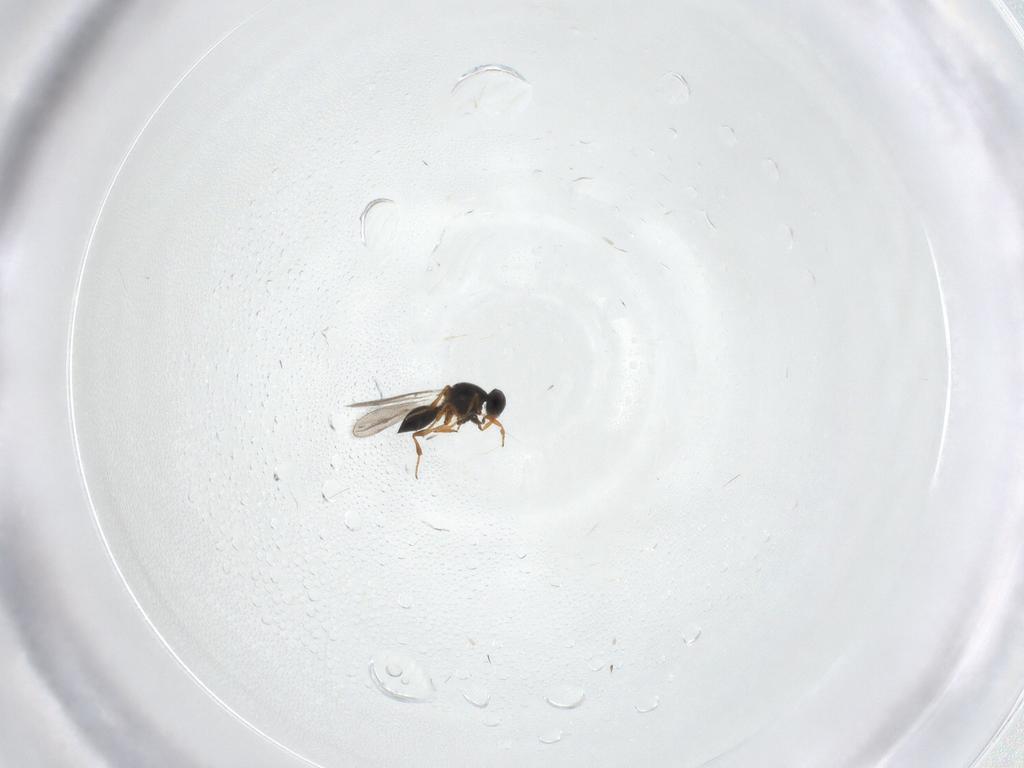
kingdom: Animalia
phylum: Arthropoda
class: Insecta
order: Hymenoptera
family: Platygastridae
